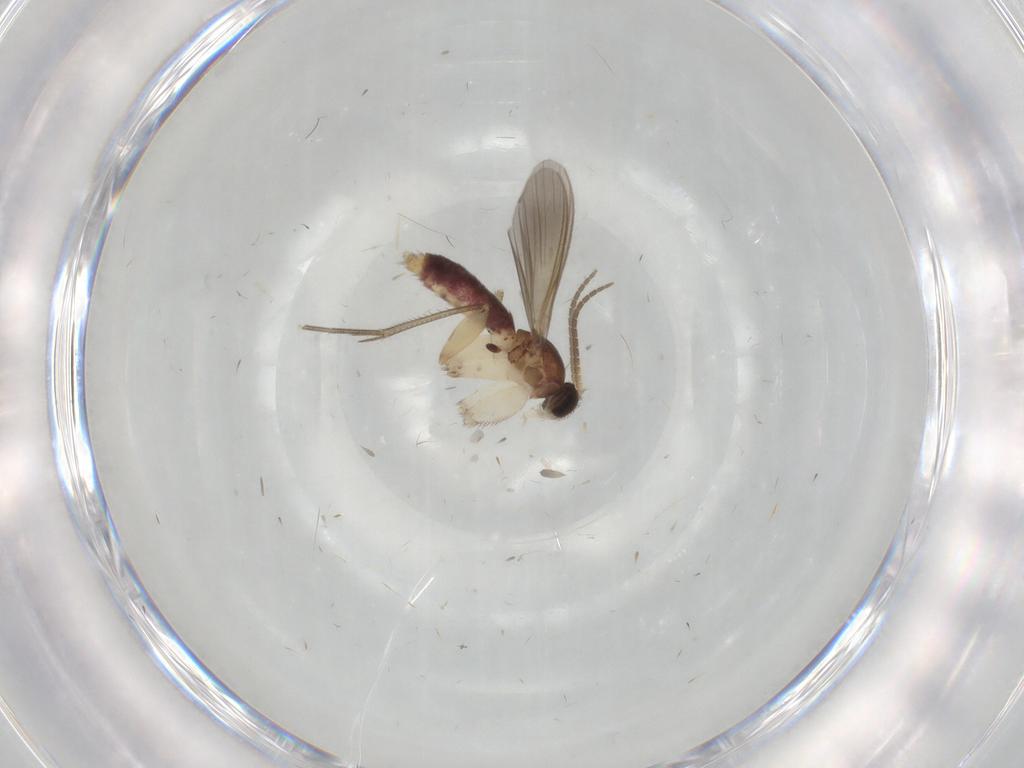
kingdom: Animalia
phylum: Arthropoda
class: Insecta
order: Diptera
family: Mycetophilidae
